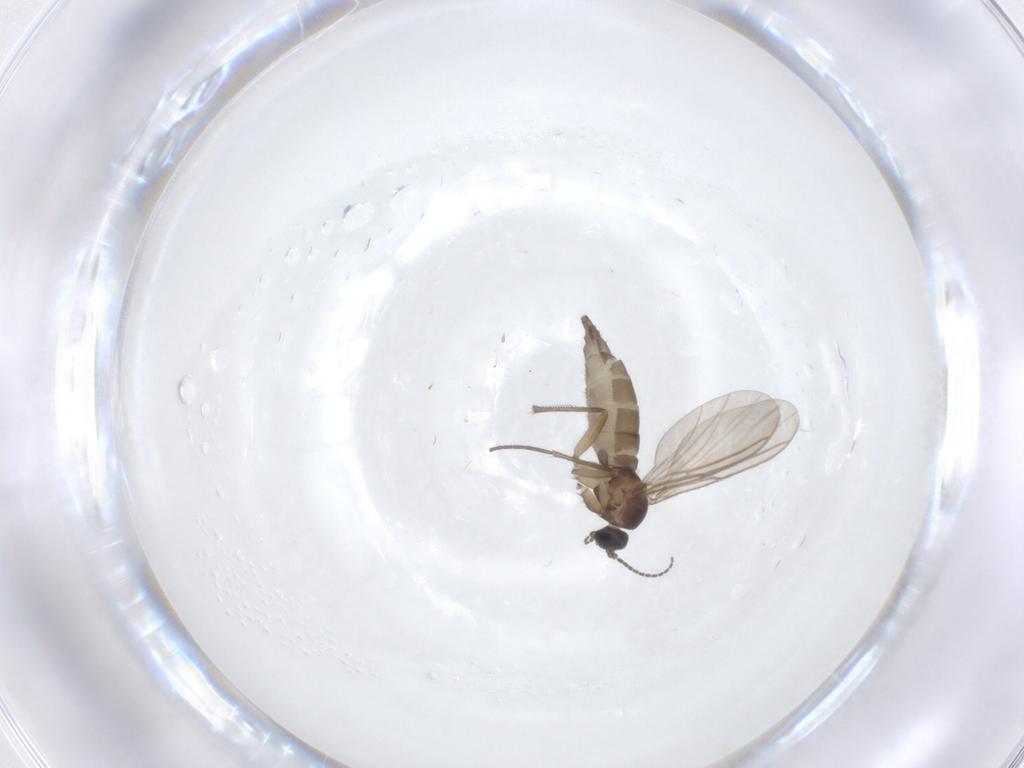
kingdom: Animalia
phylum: Arthropoda
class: Insecta
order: Diptera
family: Sciaridae
